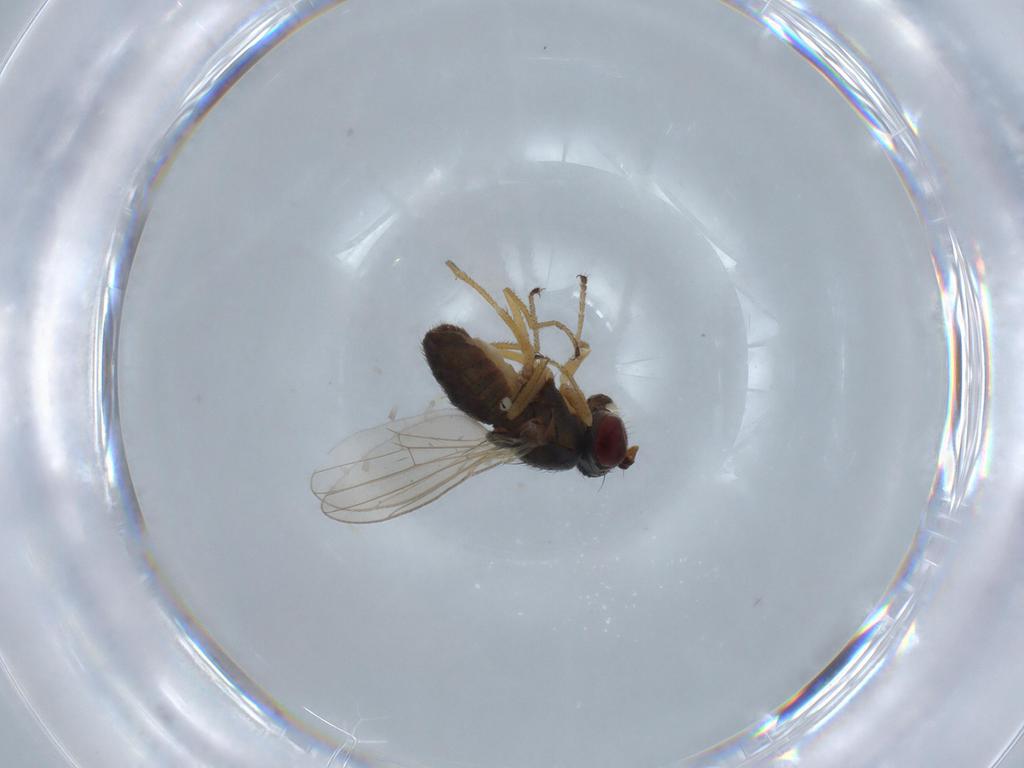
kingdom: Animalia
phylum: Arthropoda
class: Insecta
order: Diptera
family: Ephydridae
